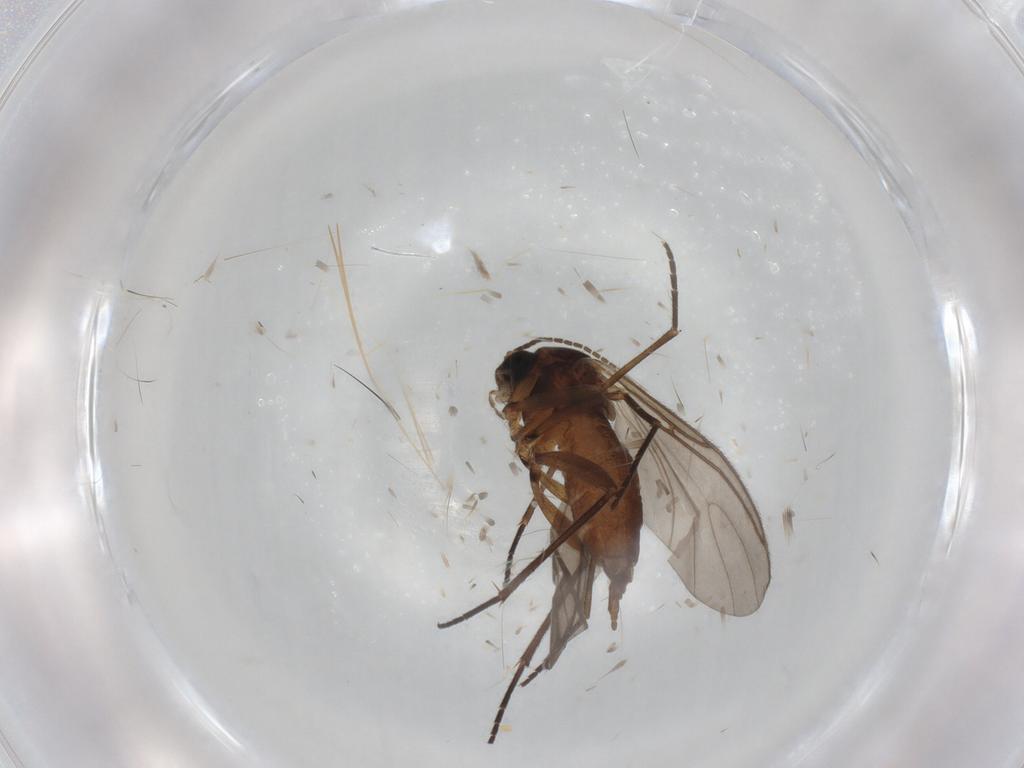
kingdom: Animalia
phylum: Arthropoda
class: Insecta
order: Diptera
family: Sciaridae
